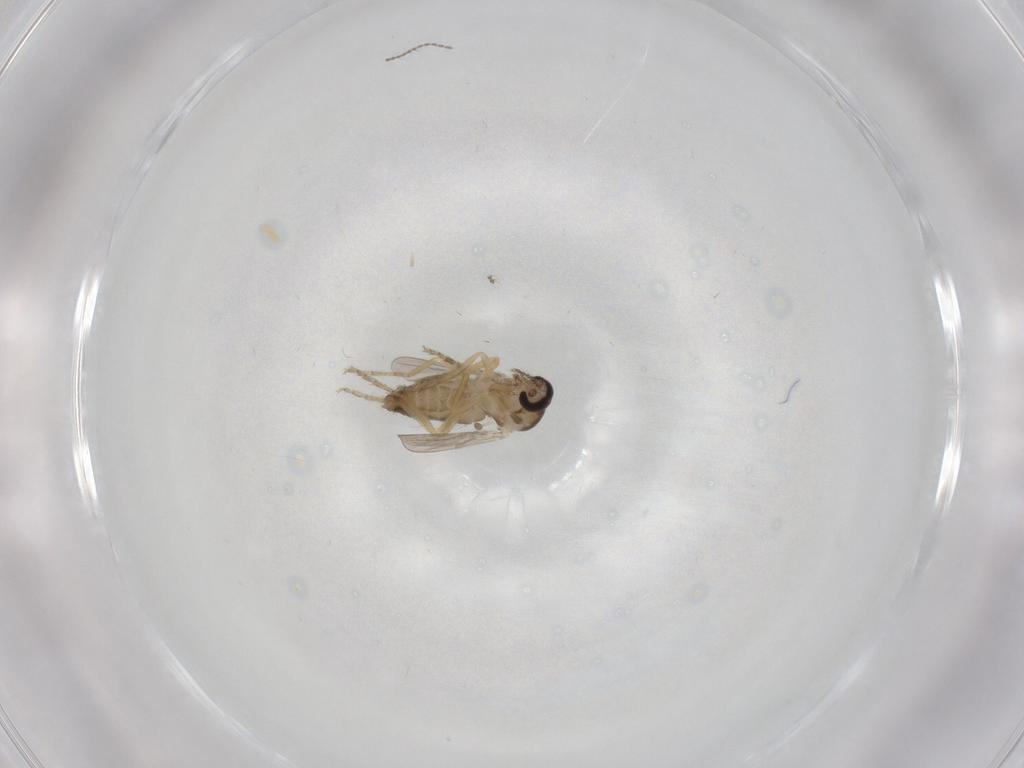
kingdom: Animalia
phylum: Arthropoda
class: Insecta
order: Diptera
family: Ceratopogonidae
